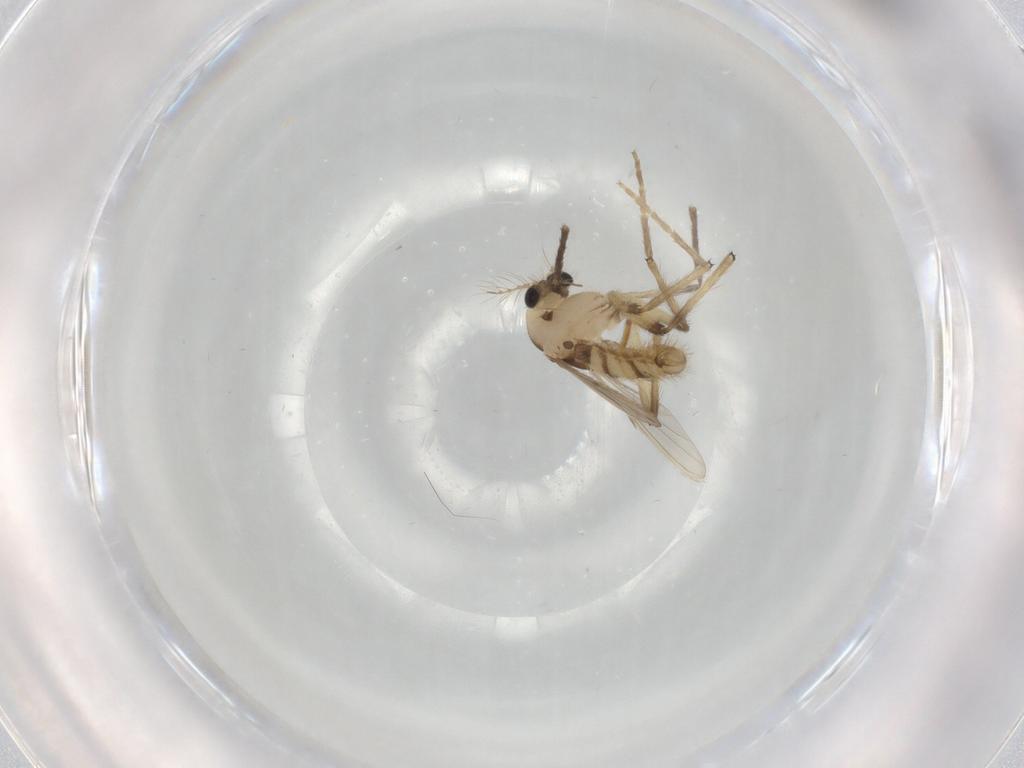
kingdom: Animalia
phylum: Arthropoda
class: Insecta
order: Diptera
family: Chironomidae
